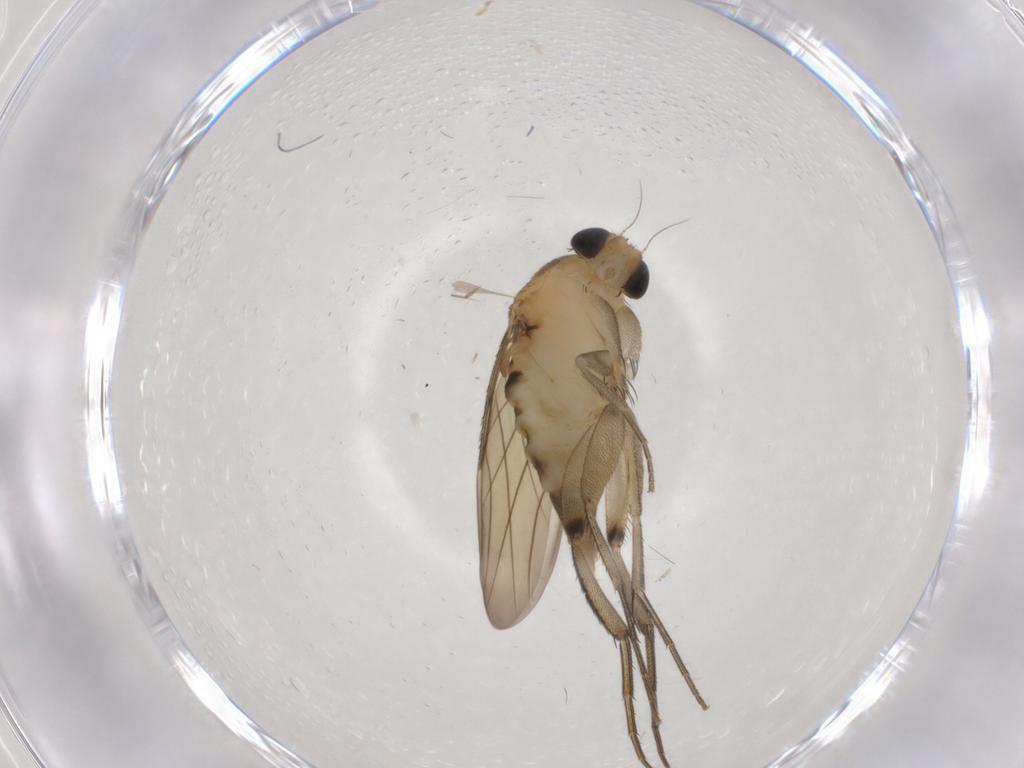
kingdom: Animalia
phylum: Arthropoda
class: Insecta
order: Diptera
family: Phoridae
